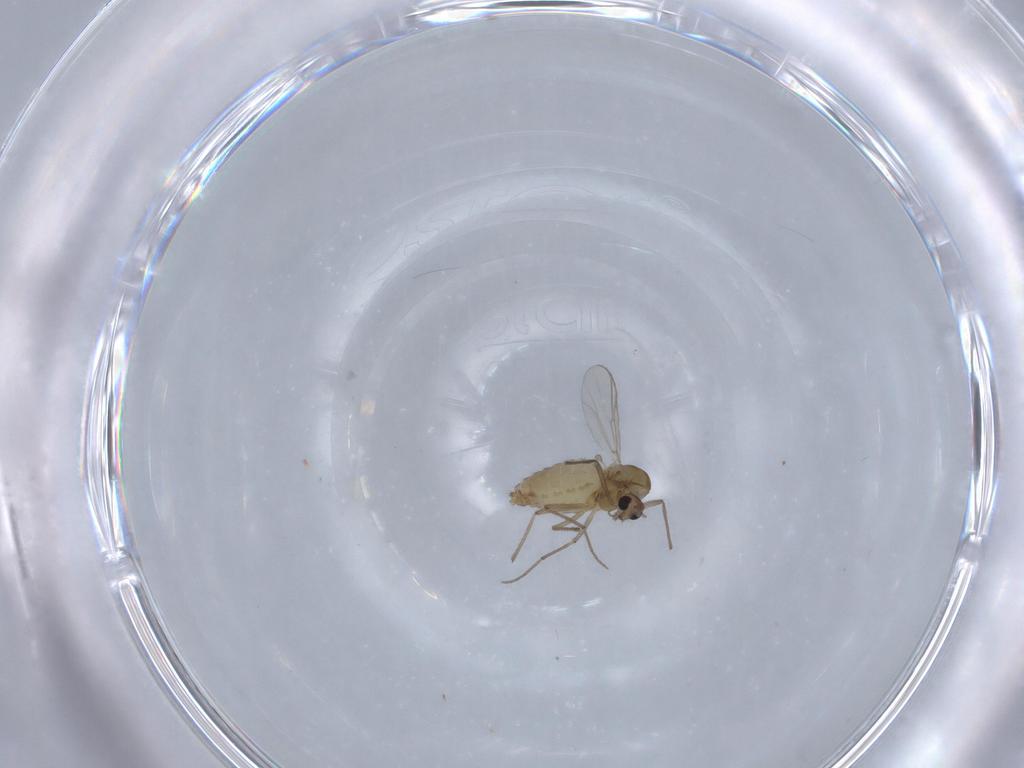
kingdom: Animalia
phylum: Arthropoda
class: Insecta
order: Diptera
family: Chironomidae
